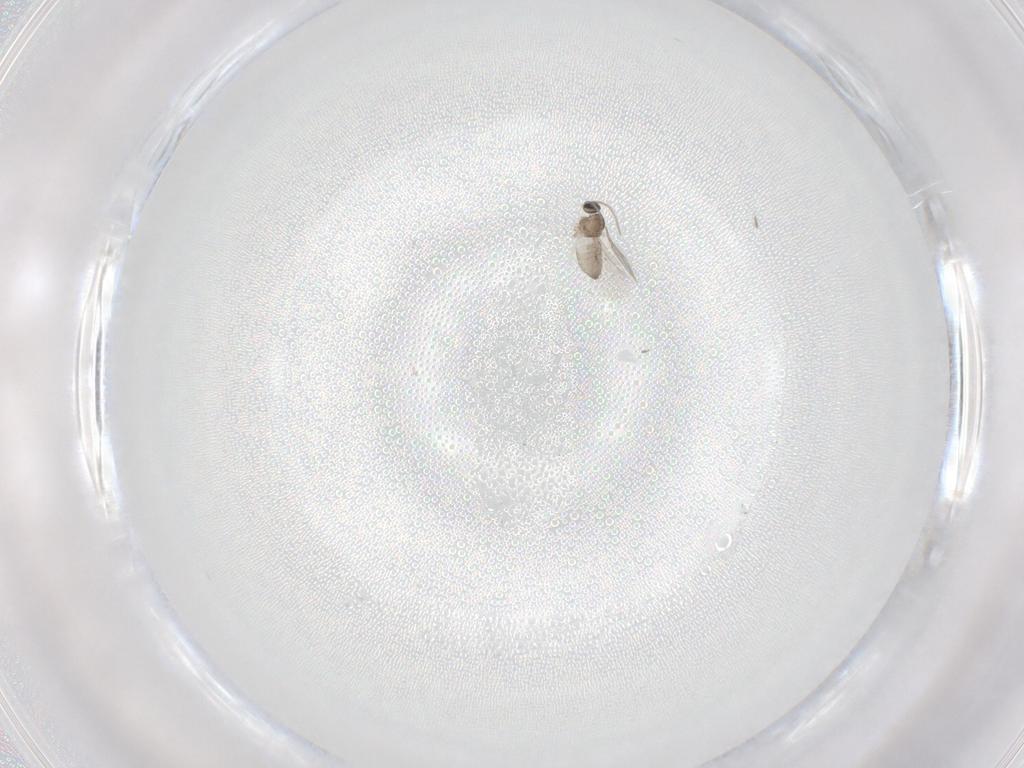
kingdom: Animalia
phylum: Arthropoda
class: Insecta
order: Diptera
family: Cecidomyiidae
